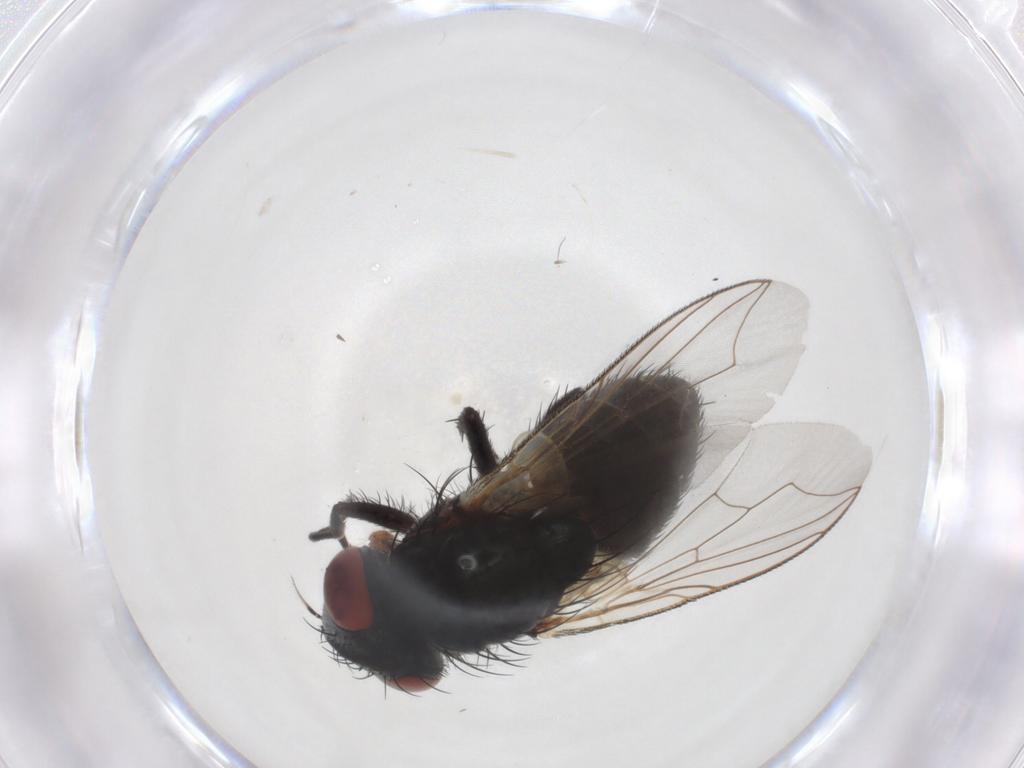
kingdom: Animalia
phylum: Arthropoda
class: Insecta
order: Diptera
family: Sarcophagidae
